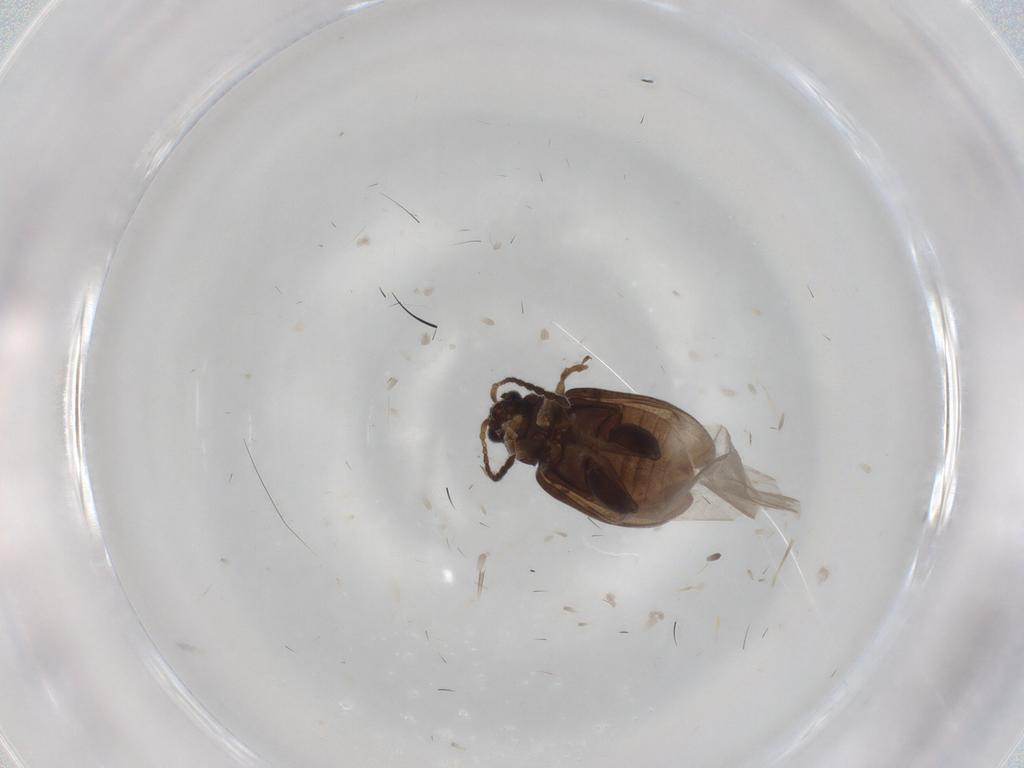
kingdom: Animalia
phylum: Arthropoda
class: Insecta
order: Coleoptera
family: Chrysomelidae
